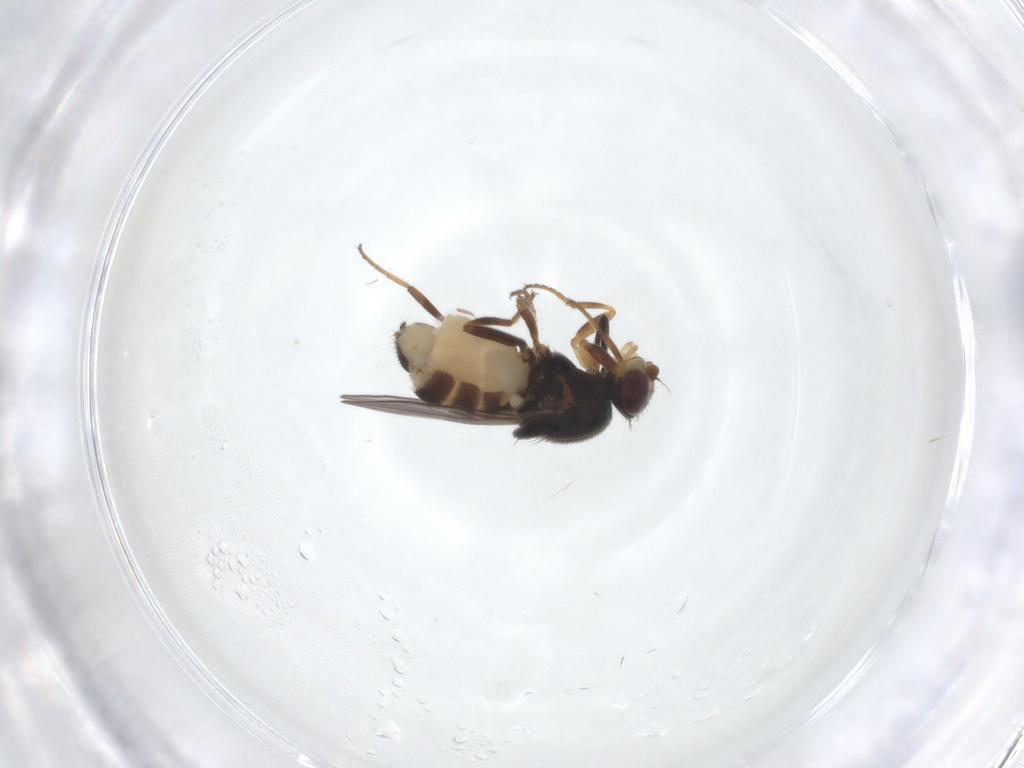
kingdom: Animalia
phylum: Arthropoda
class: Insecta
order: Diptera
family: Chloropidae
